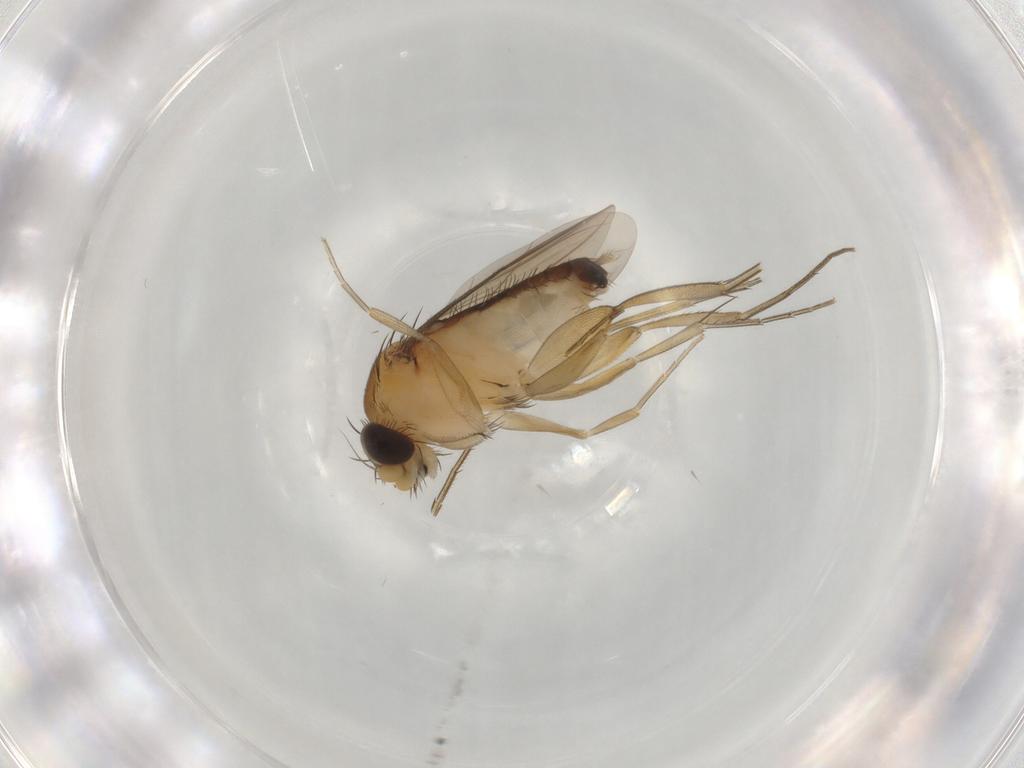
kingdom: Animalia
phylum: Arthropoda
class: Insecta
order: Diptera
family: Phoridae
